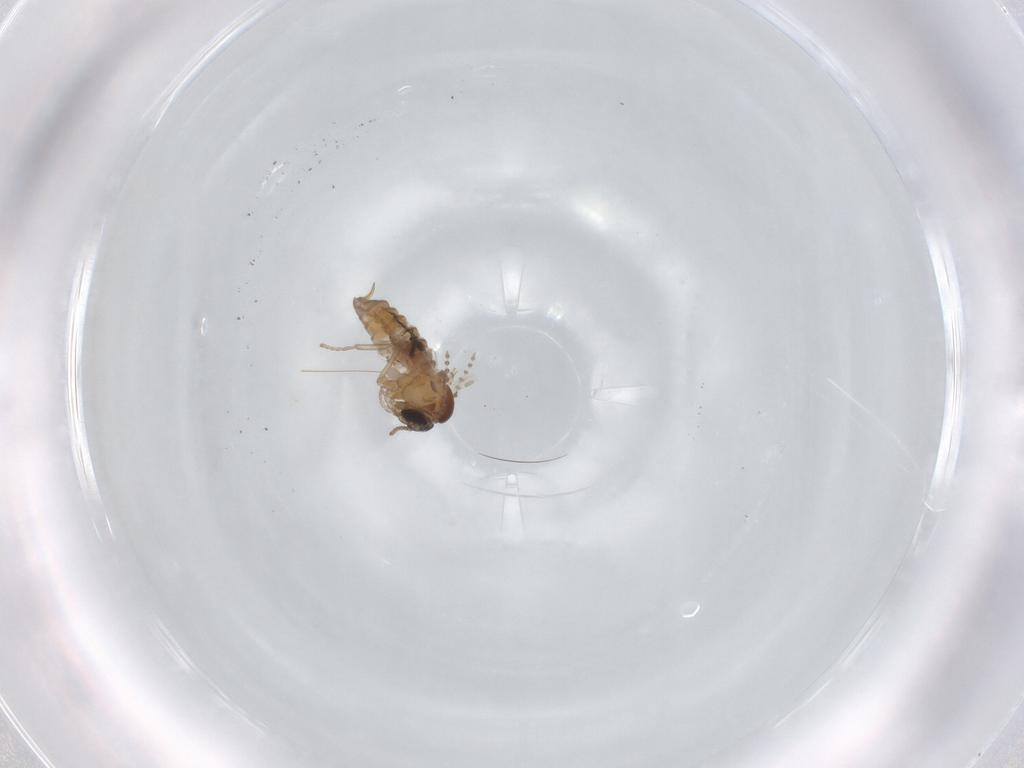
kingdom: Animalia
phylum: Arthropoda
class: Insecta
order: Diptera
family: Psychodidae
